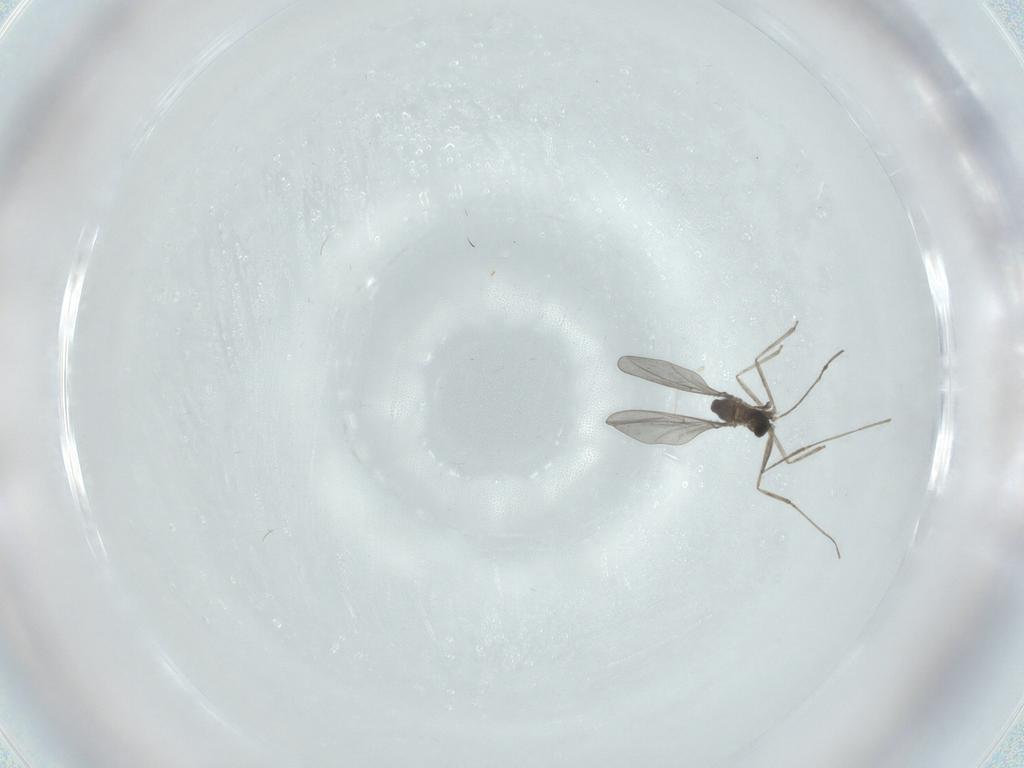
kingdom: Animalia
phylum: Arthropoda
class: Insecta
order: Diptera
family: Cecidomyiidae
